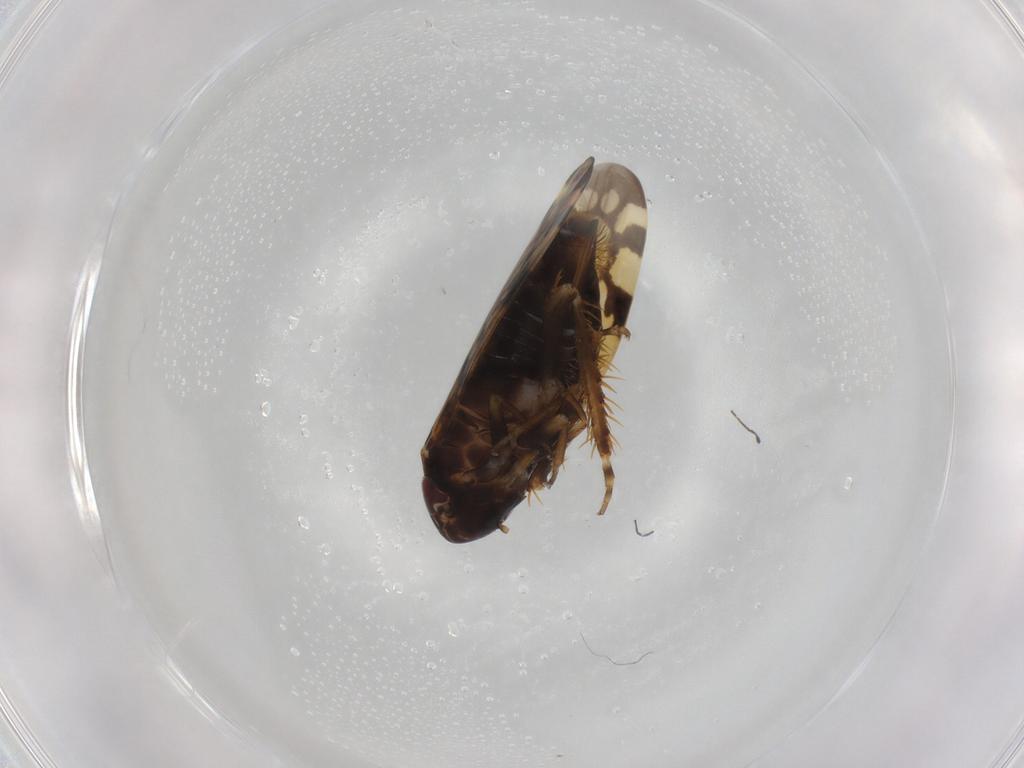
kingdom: Animalia
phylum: Arthropoda
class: Insecta
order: Hemiptera
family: Cicadellidae
